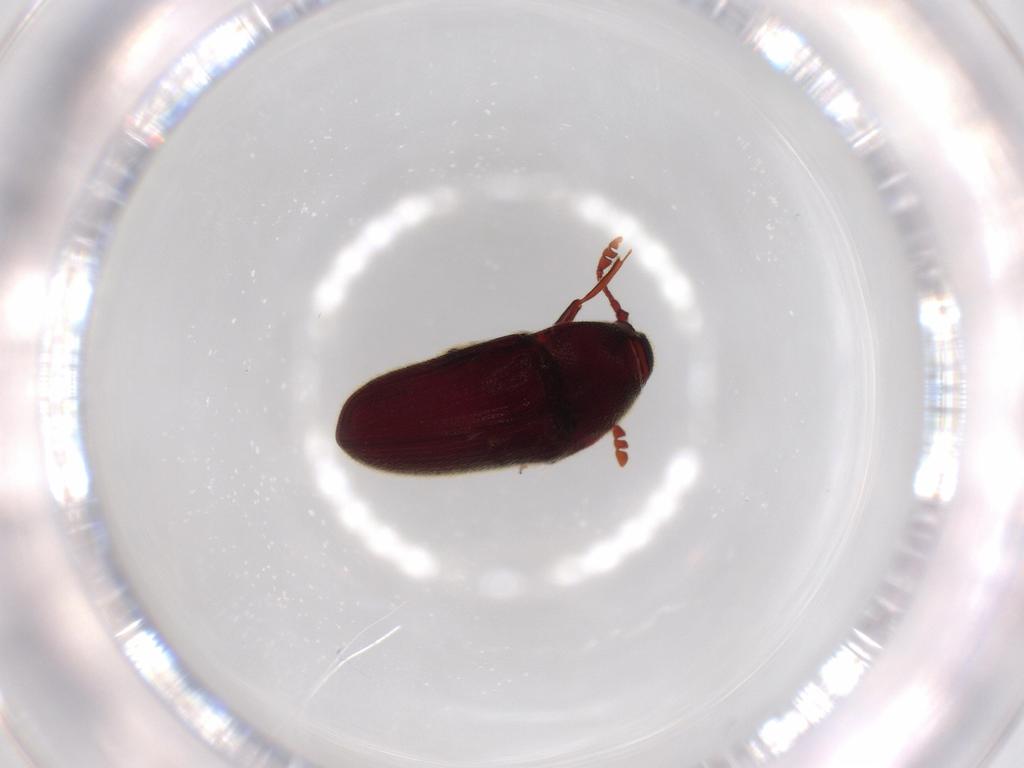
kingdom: Animalia
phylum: Arthropoda
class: Insecta
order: Coleoptera
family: Throscidae
